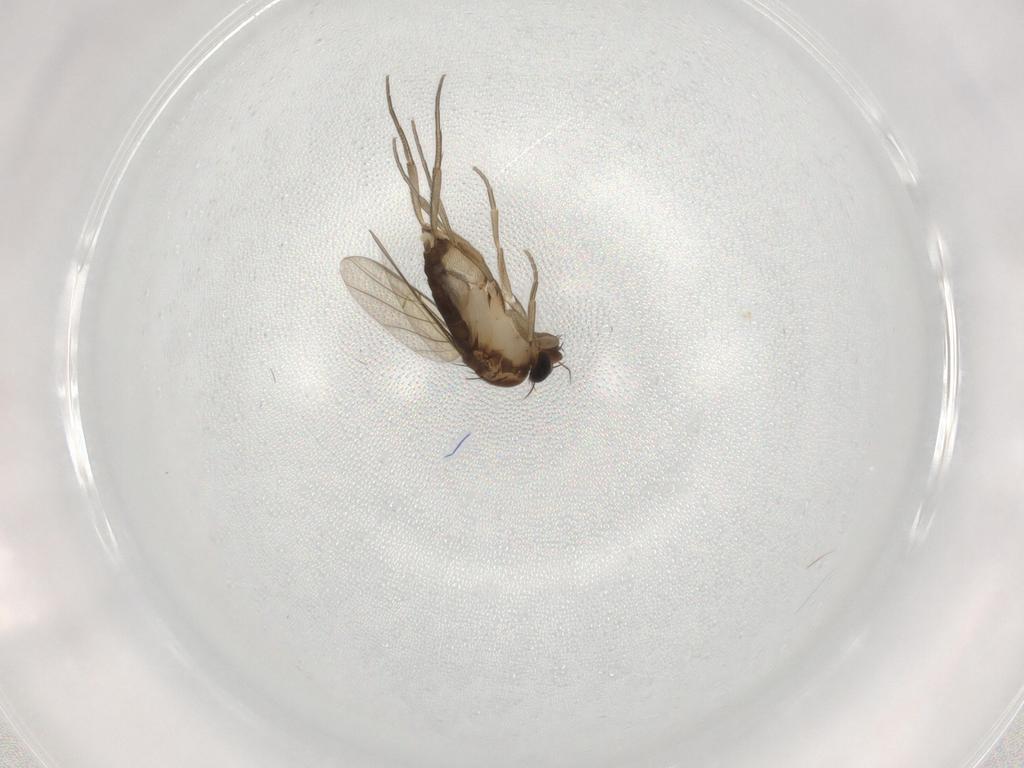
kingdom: Animalia
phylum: Arthropoda
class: Insecta
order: Diptera
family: Phoridae
